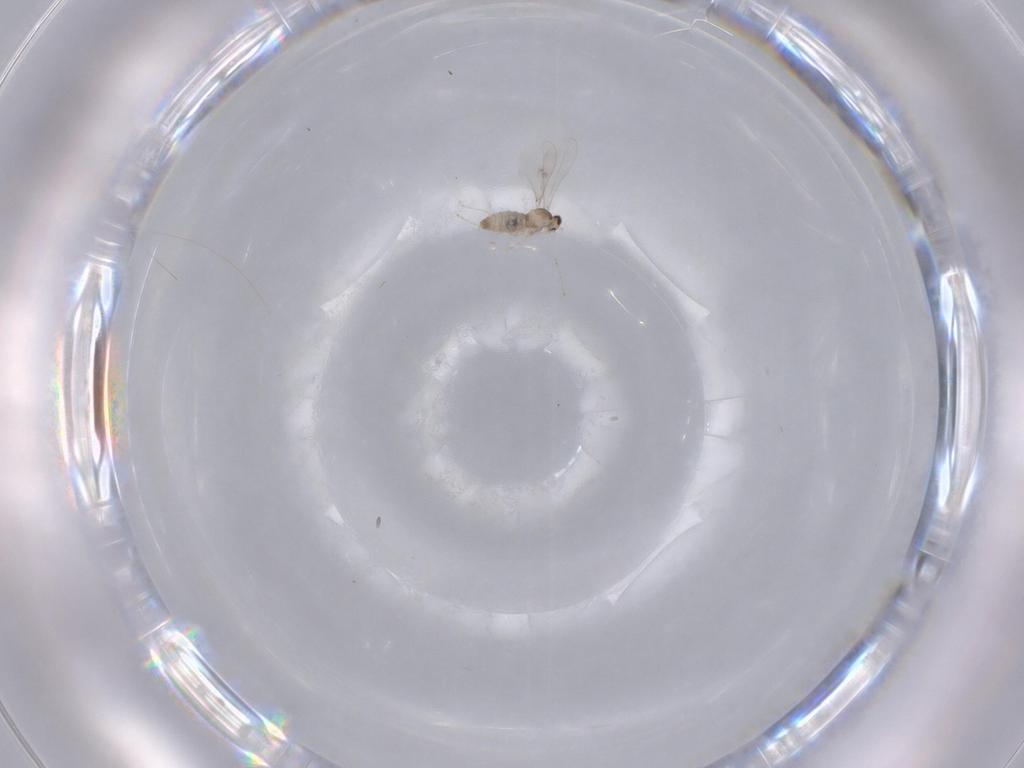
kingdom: Animalia
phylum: Arthropoda
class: Insecta
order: Diptera
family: Cecidomyiidae
